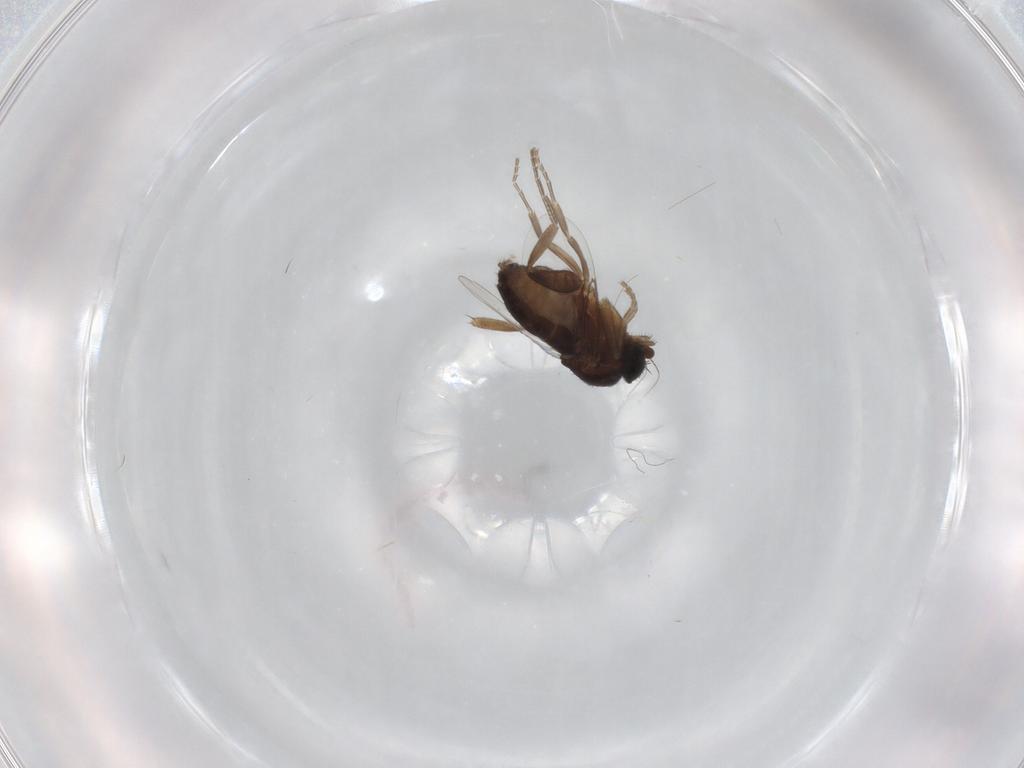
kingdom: Animalia
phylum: Arthropoda
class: Insecta
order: Diptera
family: Phoridae
